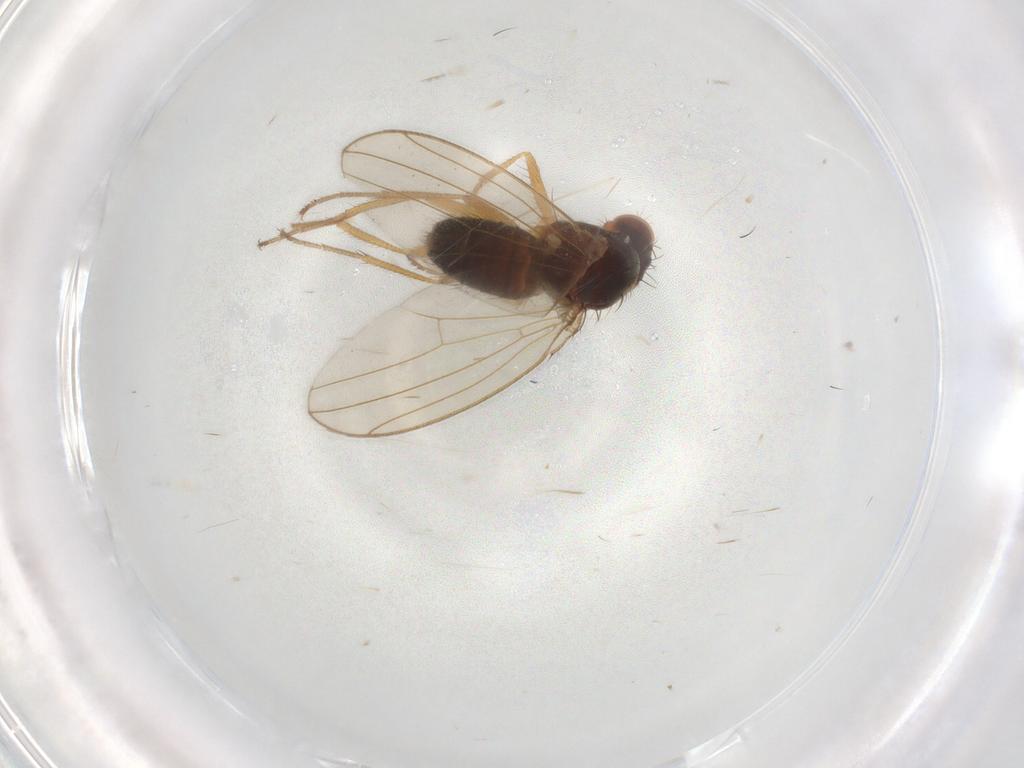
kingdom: Animalia
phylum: Arthropoda
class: Insecta
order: Diptera
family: Drosophilidae
